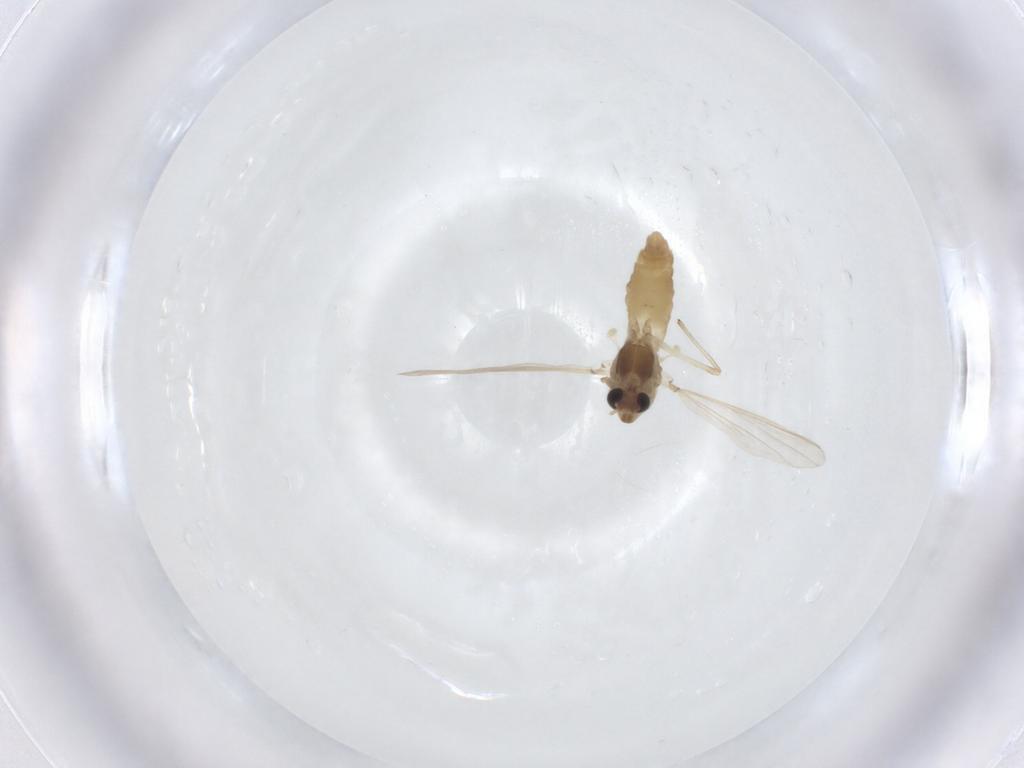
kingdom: Animalia
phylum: Arthropoda
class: Insecta
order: Diptera
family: Chironomidae
